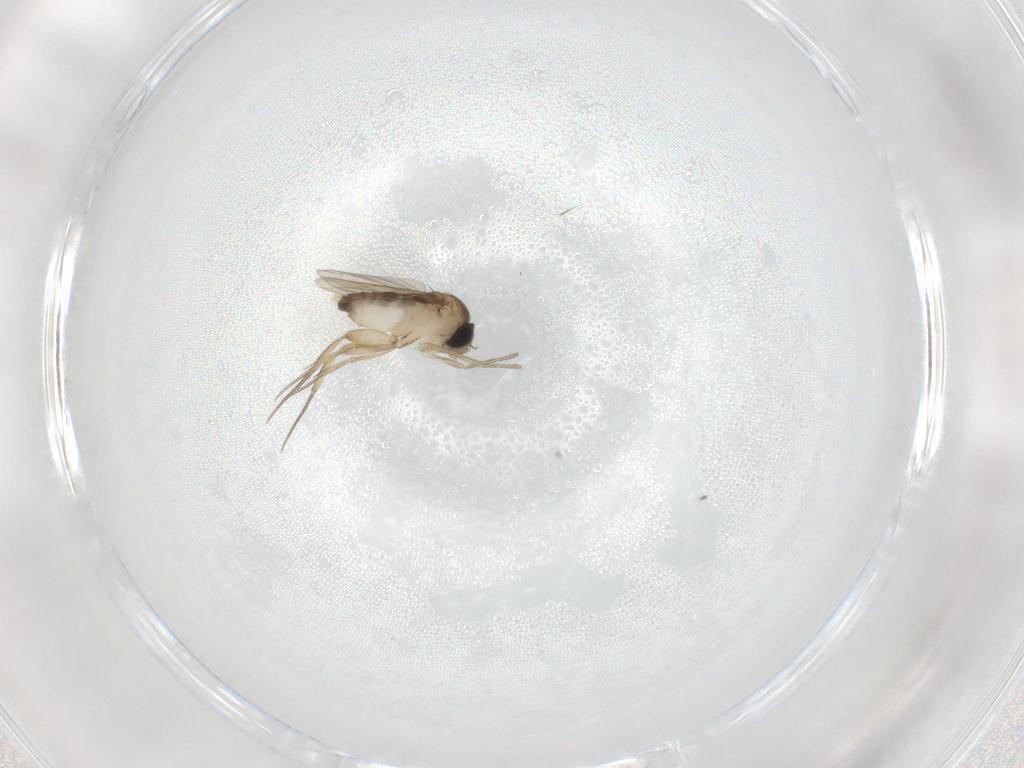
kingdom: Animalia
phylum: Arthropoda
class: Insecta
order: Diptera
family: Phoridae
